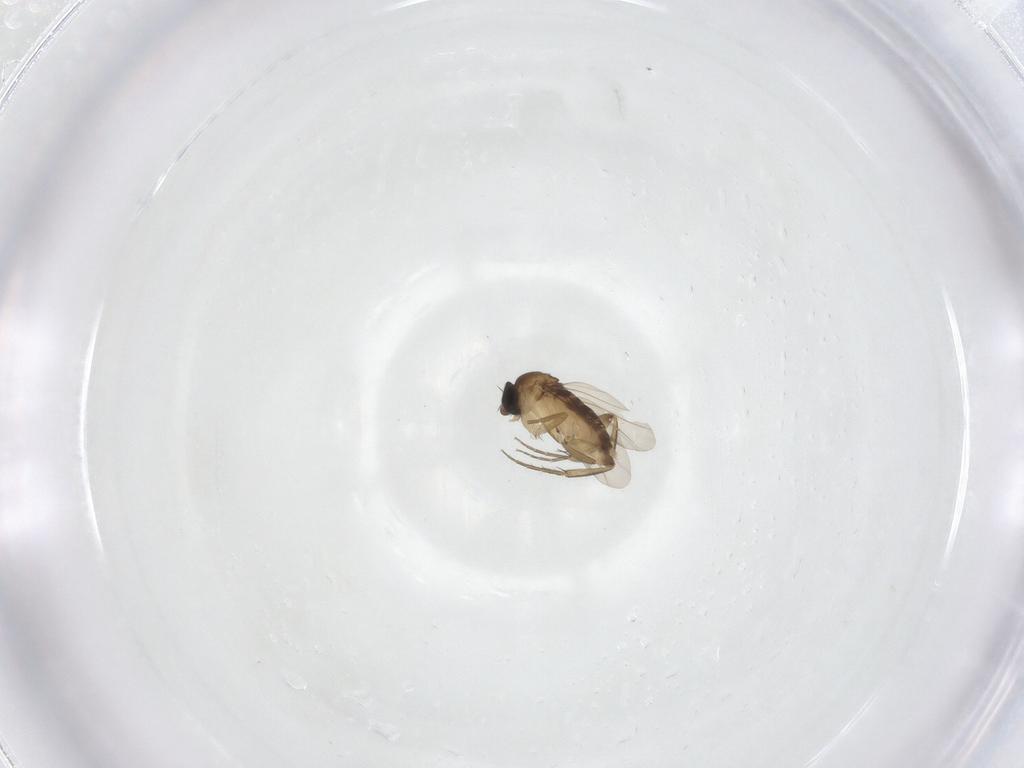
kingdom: Animalia
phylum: Arthropoda
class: Insecta
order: Diptera
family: Phoridae
